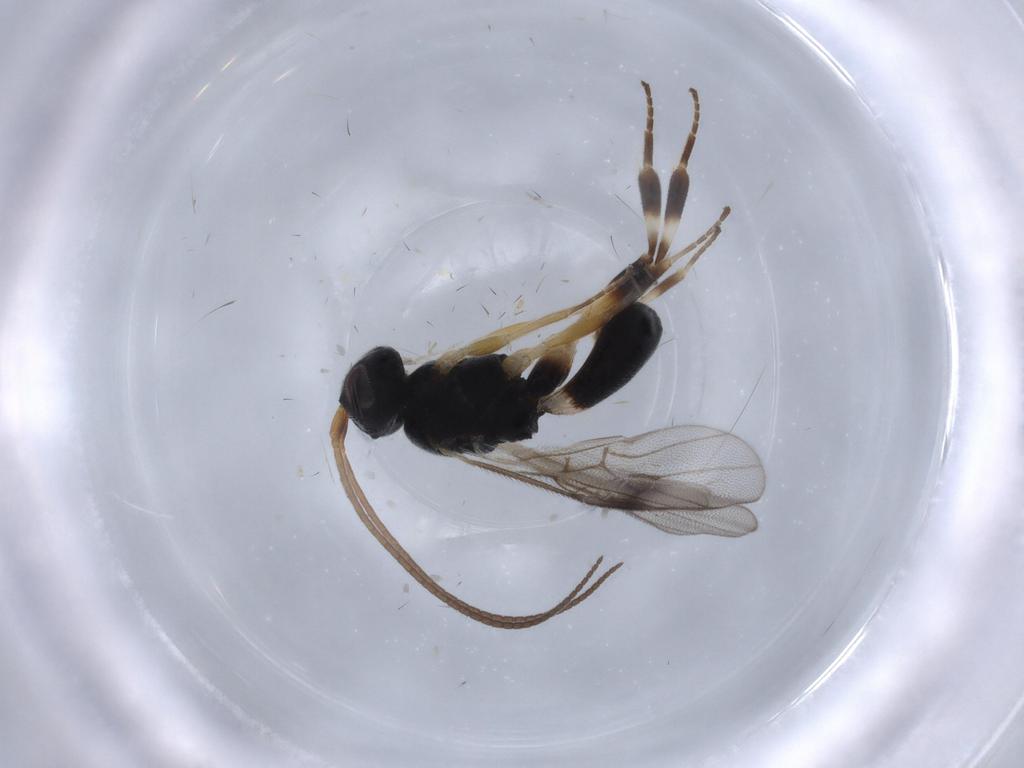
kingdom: Animalia
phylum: Arthropoda
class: Insecta
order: Hymenoptera
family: Braconidae
